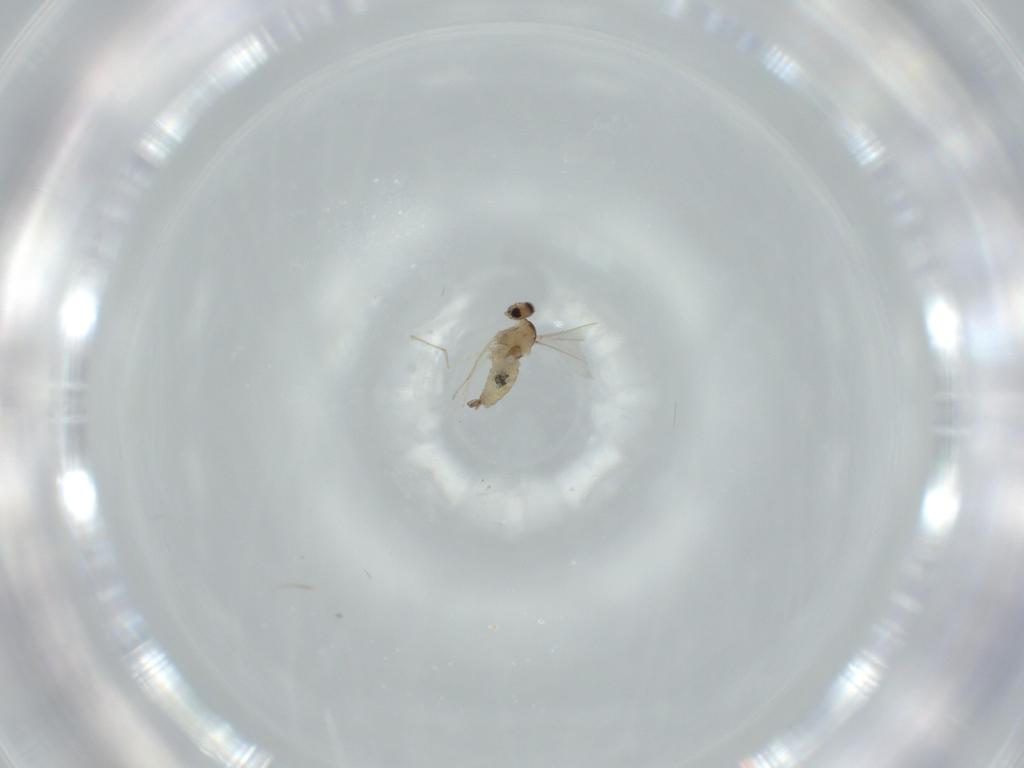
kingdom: Animalia
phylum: Arthropoda
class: Insecta
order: Diptera
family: Cecidomyiidae
